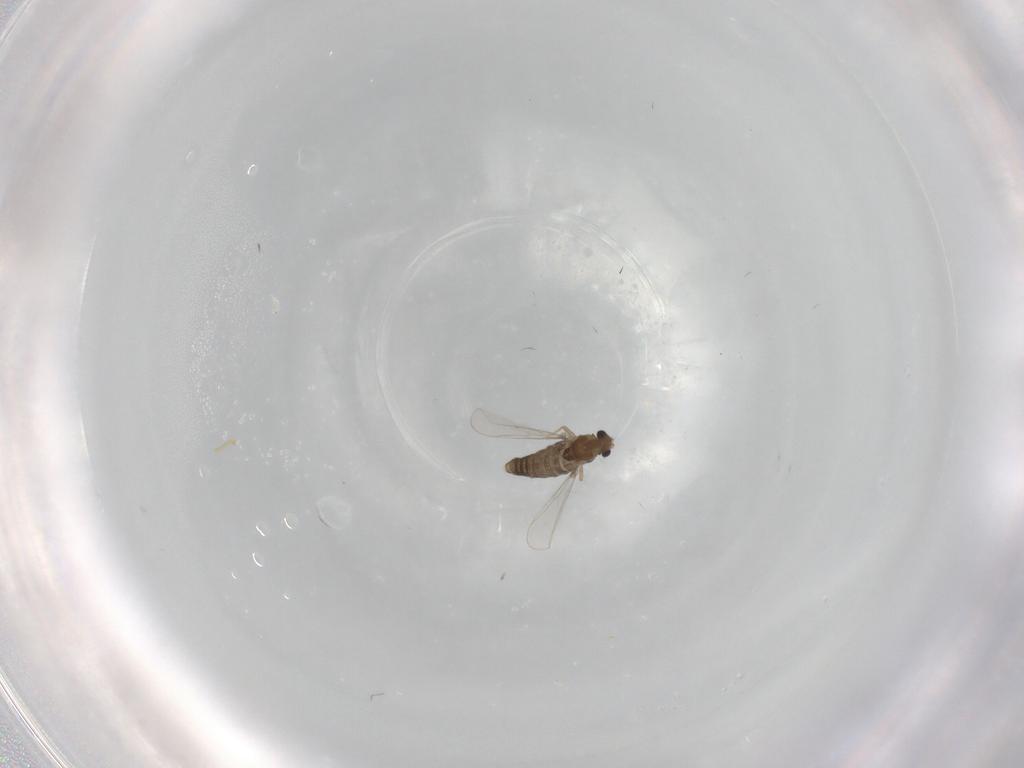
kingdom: Animalia
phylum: Arthropoda
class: Insecta
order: Diptera
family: Chironomidae
